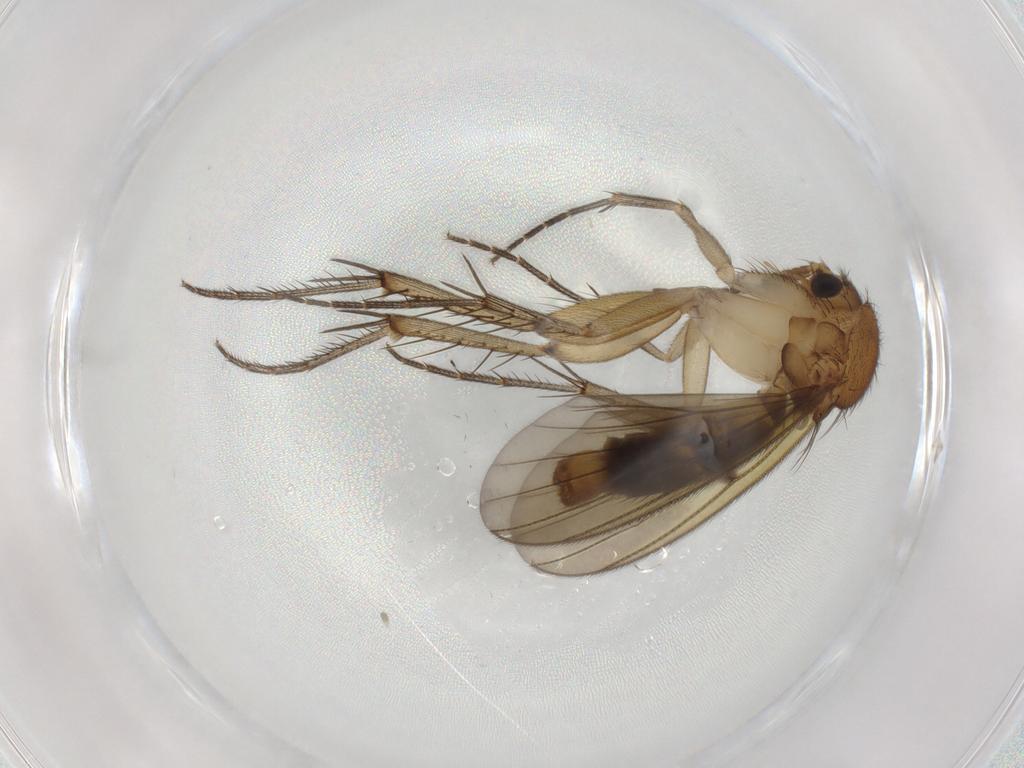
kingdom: Animalia
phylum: Arthropoda
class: Insecta
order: Diptera
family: Mycetophilidae
